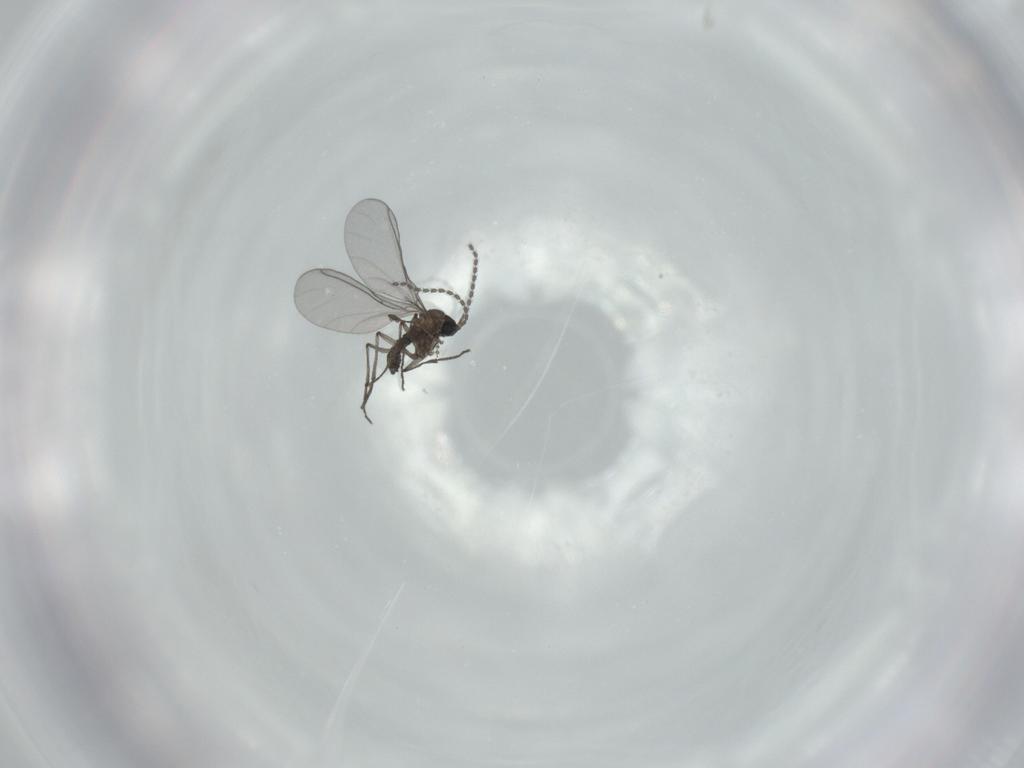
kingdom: Animalia
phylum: Arthropoda
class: Insecta
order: Diptera
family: Sciaridae
